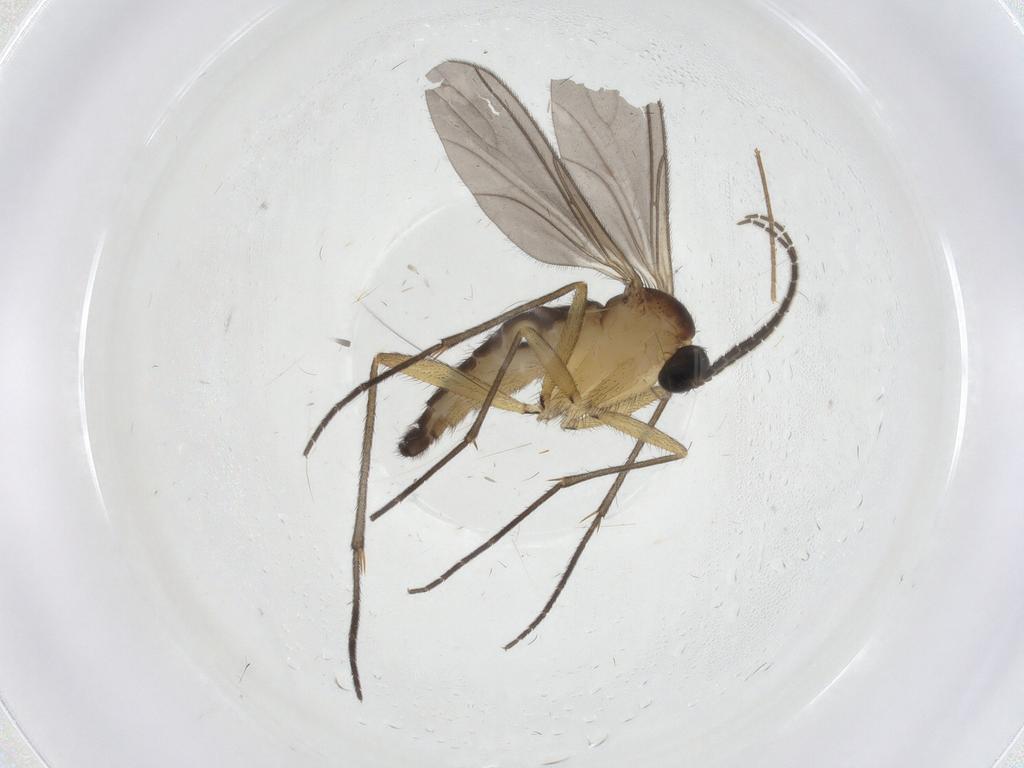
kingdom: Animalia
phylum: Arthropoda
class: Insecta
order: Diptera
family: Sciaridae
